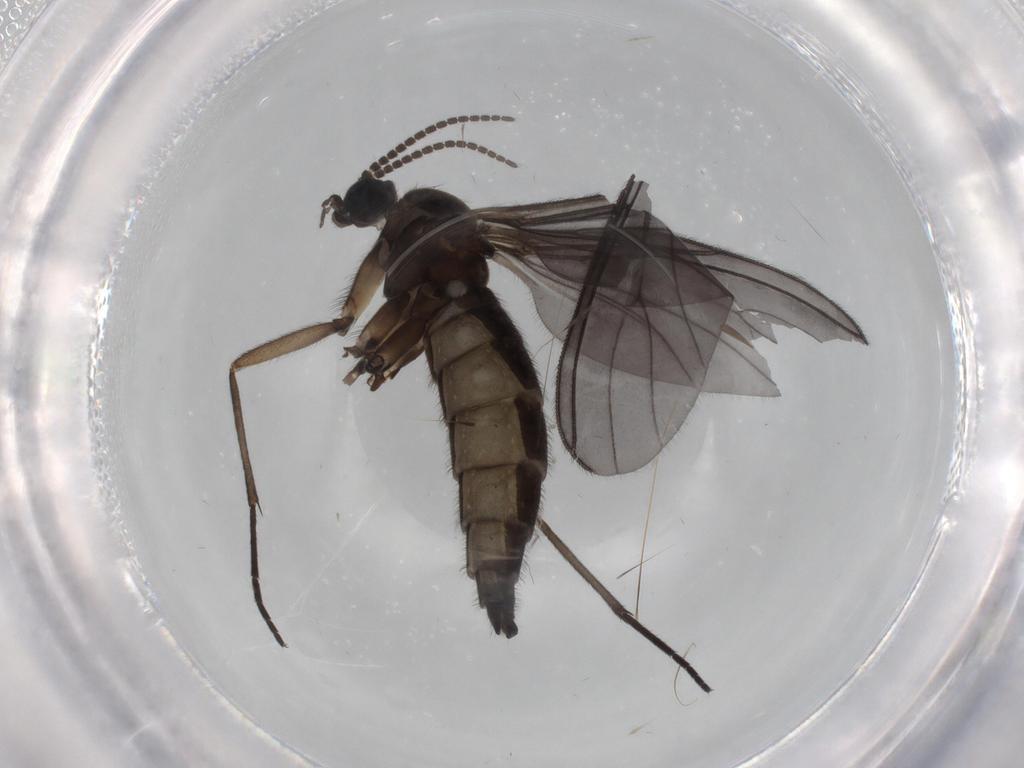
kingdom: Animalia
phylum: Arthropoda
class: Insecta
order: Diptera
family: Sciaridae
